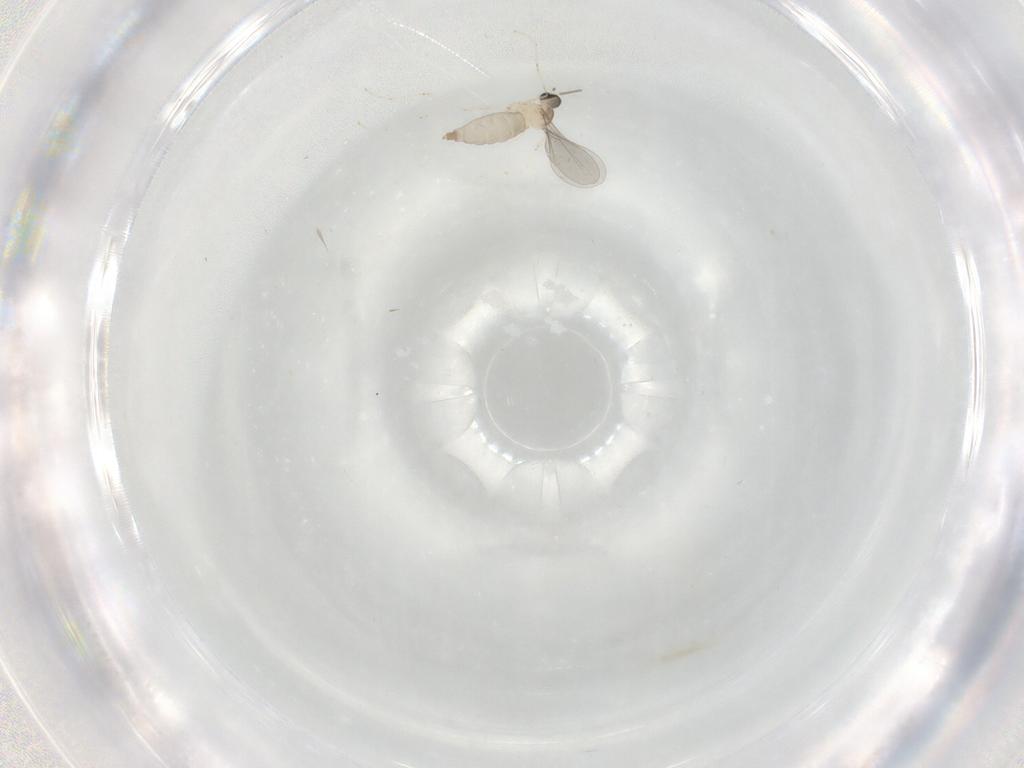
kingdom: Animalia
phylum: Arthropoda
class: Insecta
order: Diptera
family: Cecidomyiidae
